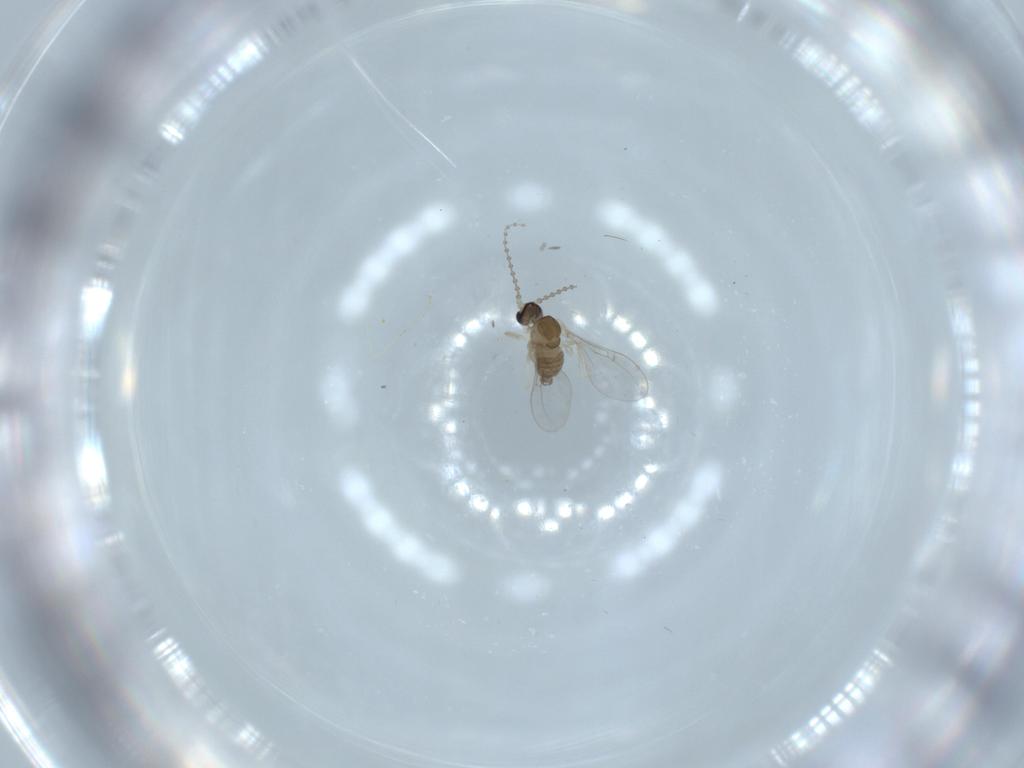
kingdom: Animalia
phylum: Arthropoda
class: Insecta
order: Diptera
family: Cecidomyiidae
